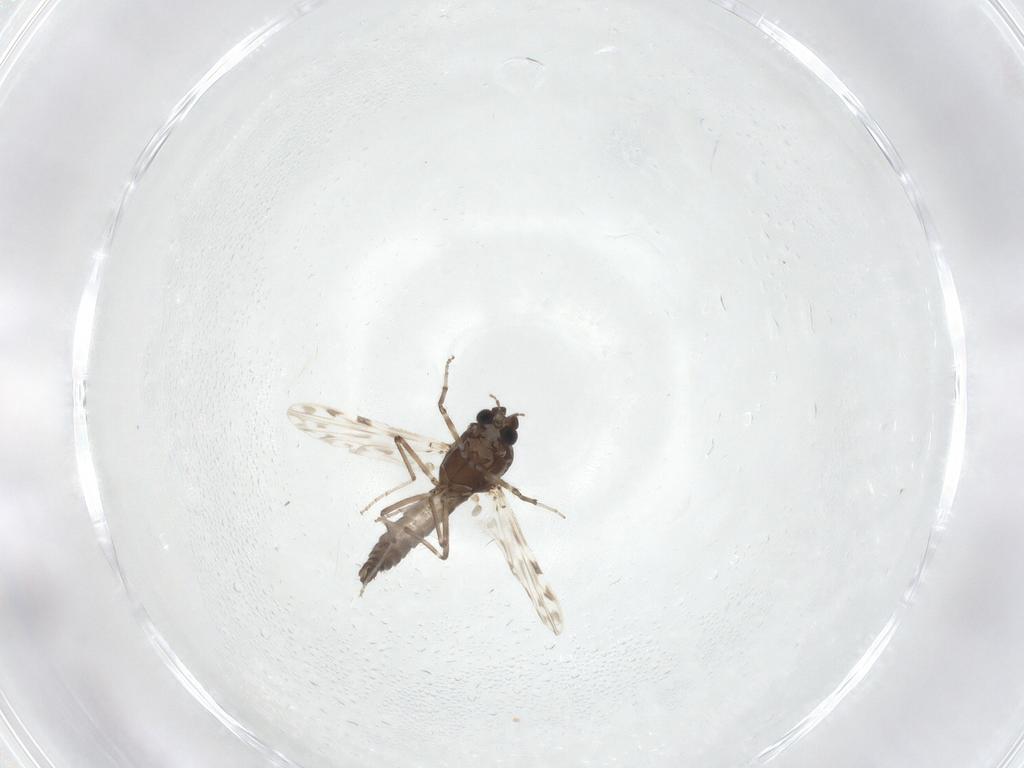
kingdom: Animalia
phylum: Arthropoda
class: Insecta
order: Diptera
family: Ceratopogonidae
